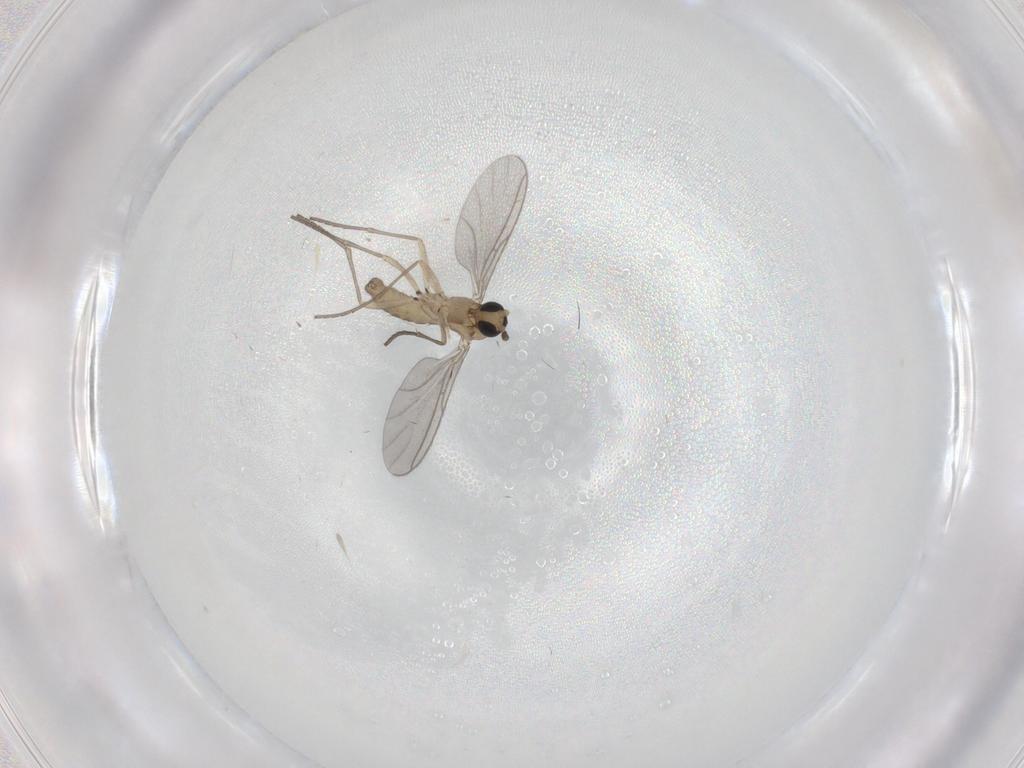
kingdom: Animalia
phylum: Arthropoda
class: Insecta
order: Diptera
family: Sciaridae
